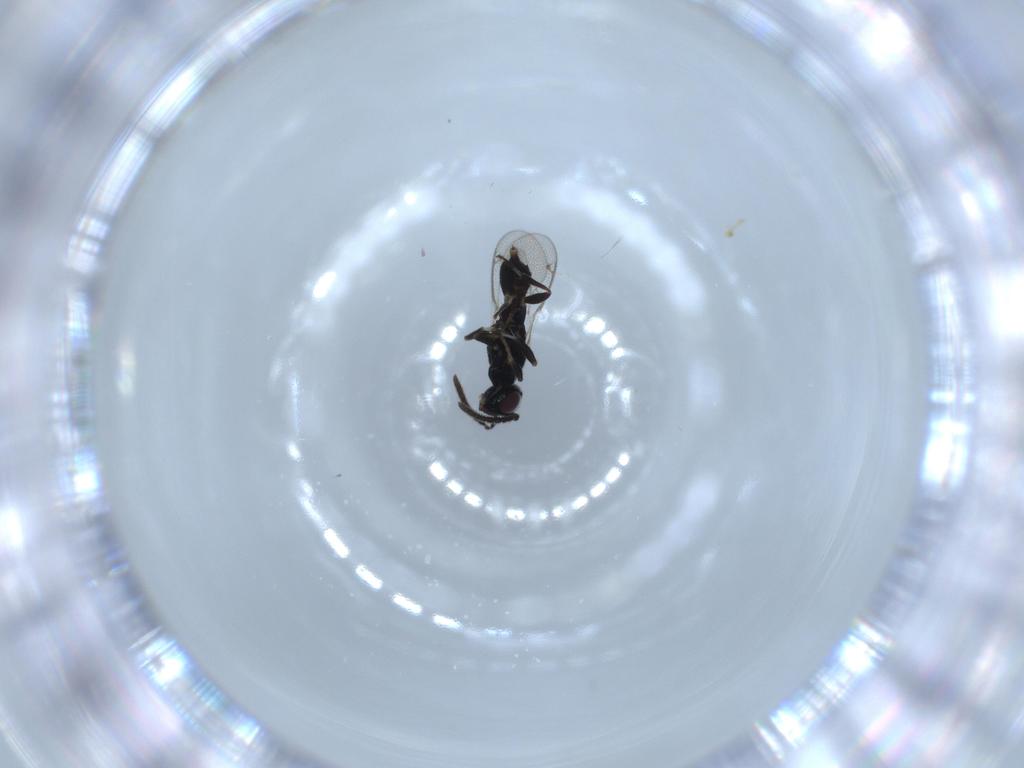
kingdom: Animalia
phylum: Arthropoda
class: Insecta
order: Hymenoptera
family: Eupelmidae
